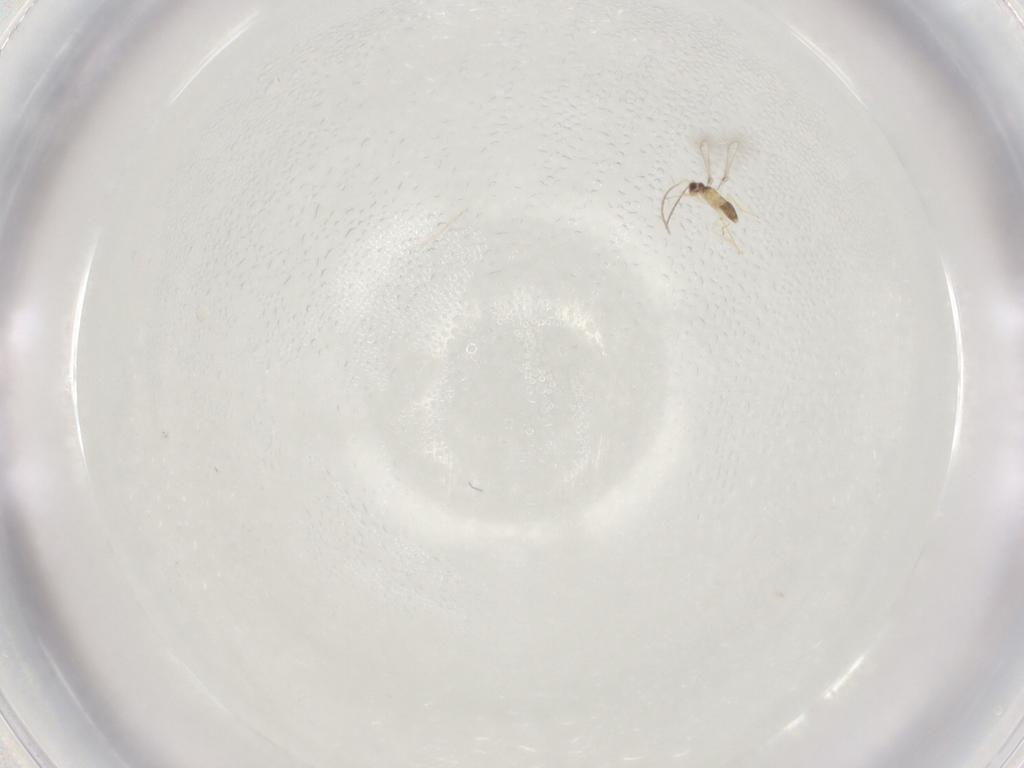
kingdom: Animalia
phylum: Arthropoda
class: Insecta
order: Hymenoptera
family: Mymaridae
